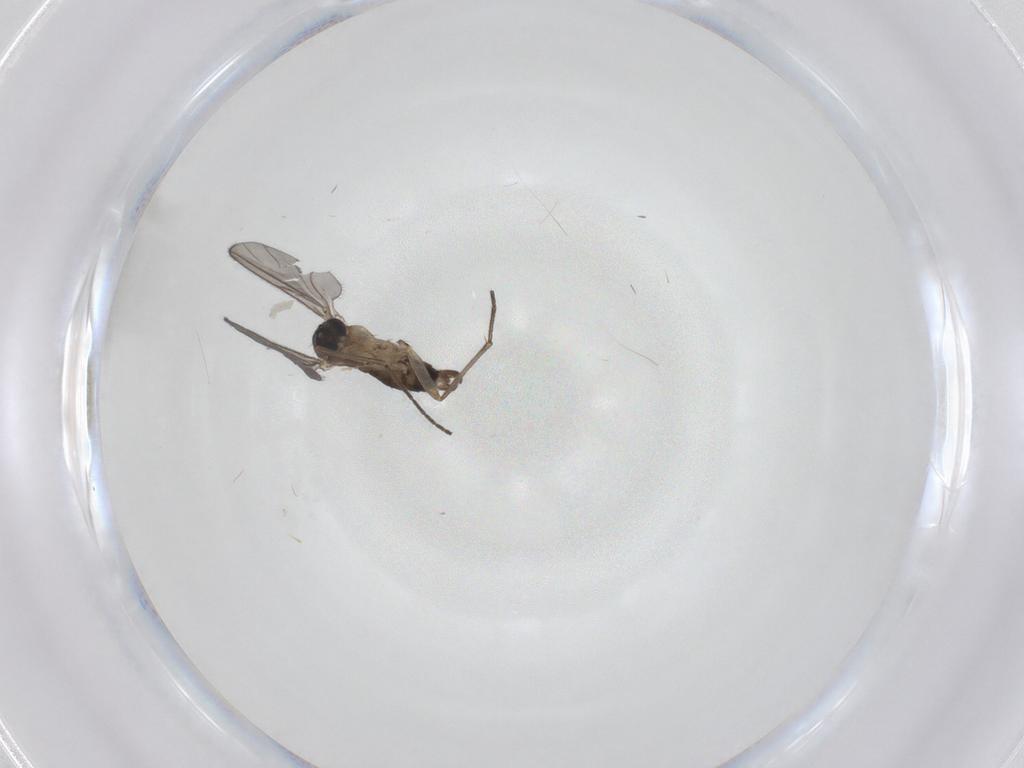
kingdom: Animalia
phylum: Arthropoda
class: Insecta
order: Diptera
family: Sciaridae
